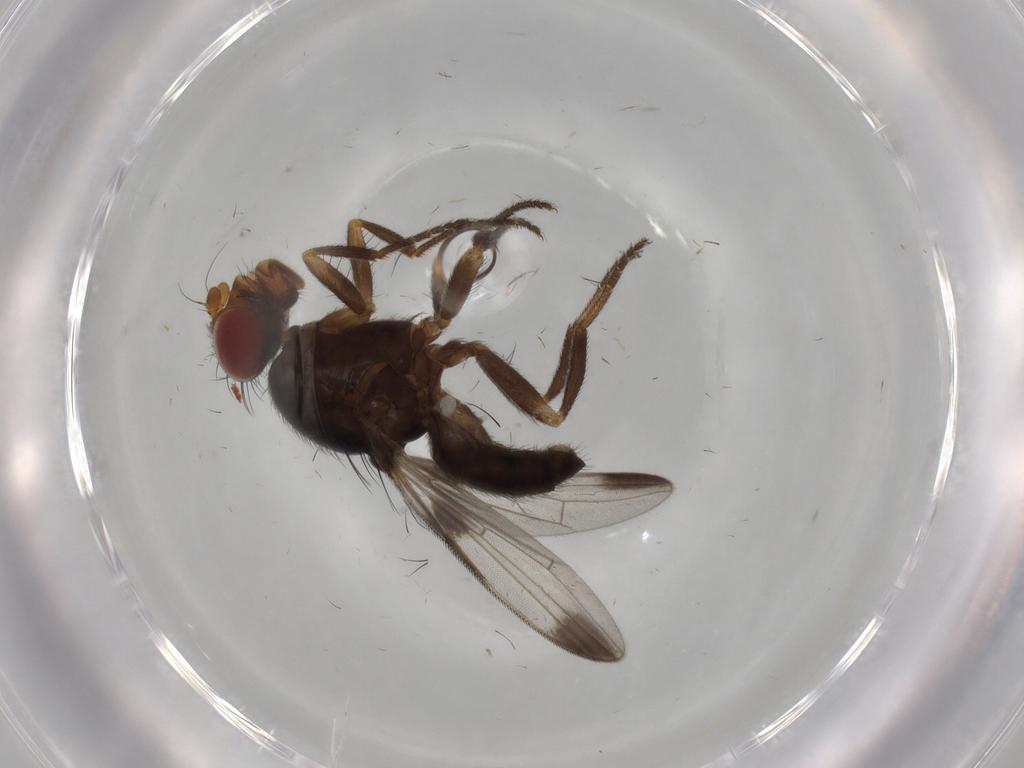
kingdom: Animalia
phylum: Arthropoda
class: Insecta
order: Diptera
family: Ulidiidae
